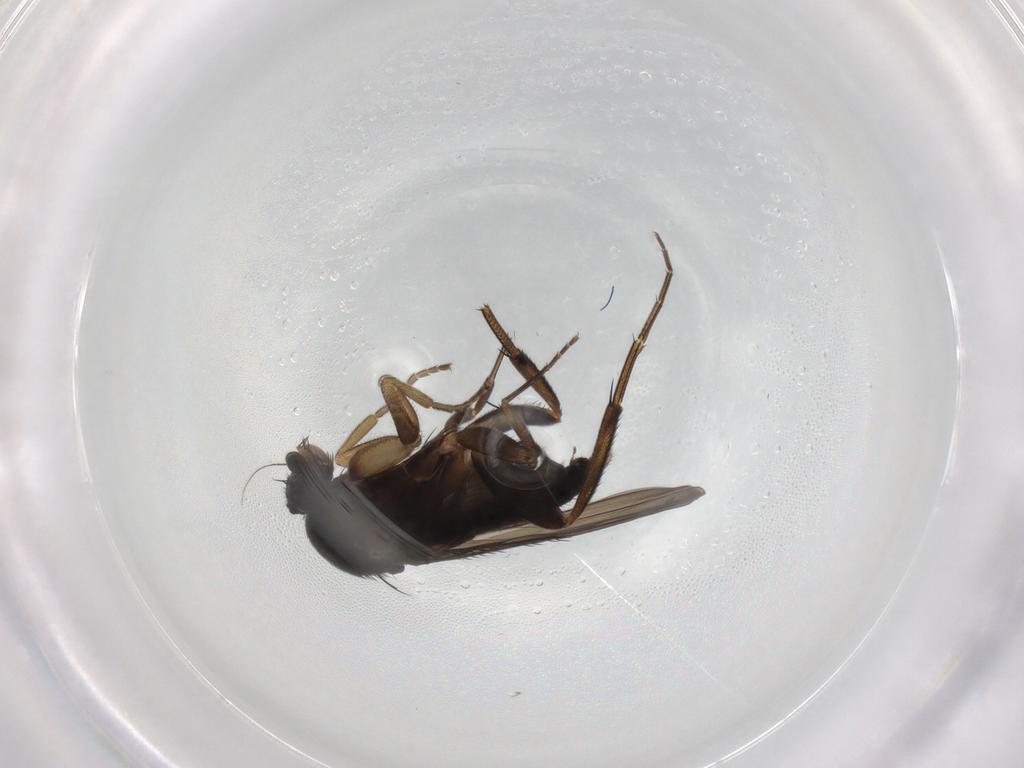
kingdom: Animalia
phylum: Arthropoda
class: Insecta
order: Diptera
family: Phoridae
